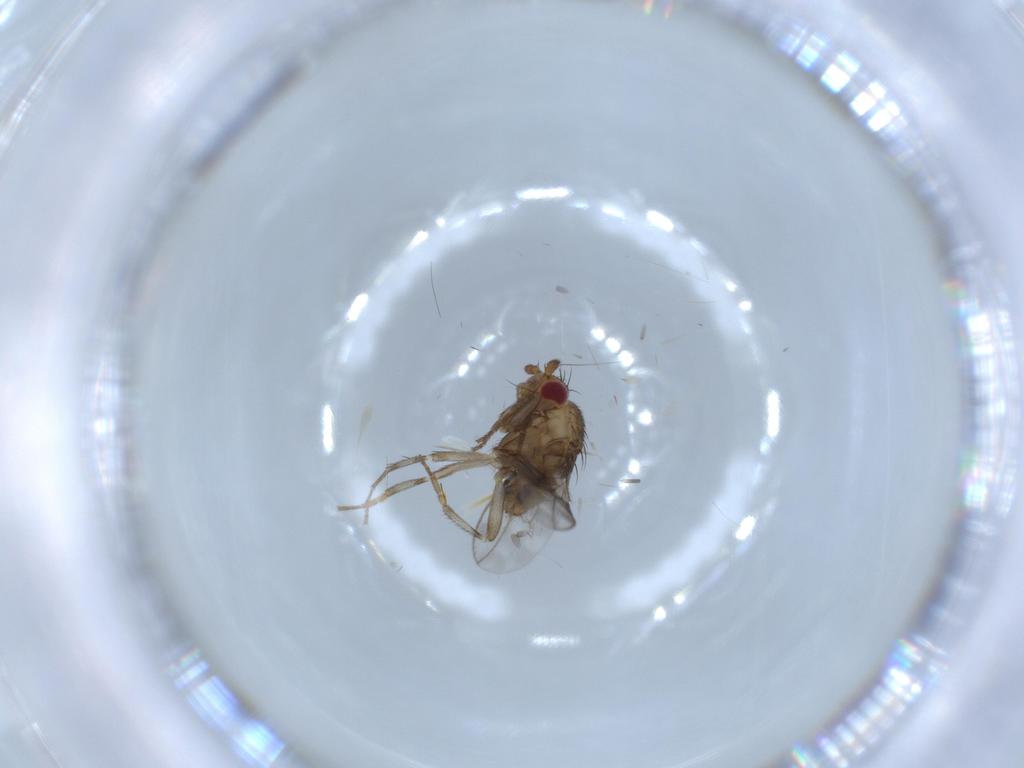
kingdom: Animalia
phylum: Arthropoda
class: Insecta
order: Diptera
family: Sphaeroceridae
